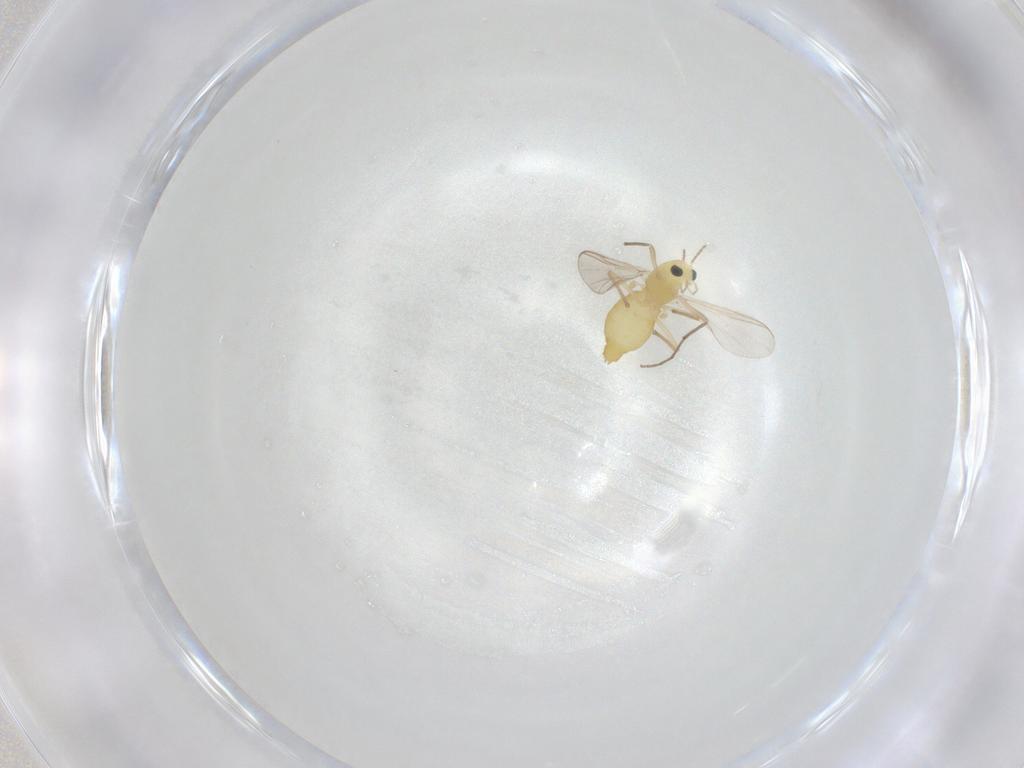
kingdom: Animalia
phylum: Arthropoda
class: Insecta
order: Diptera
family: Chironomidae
